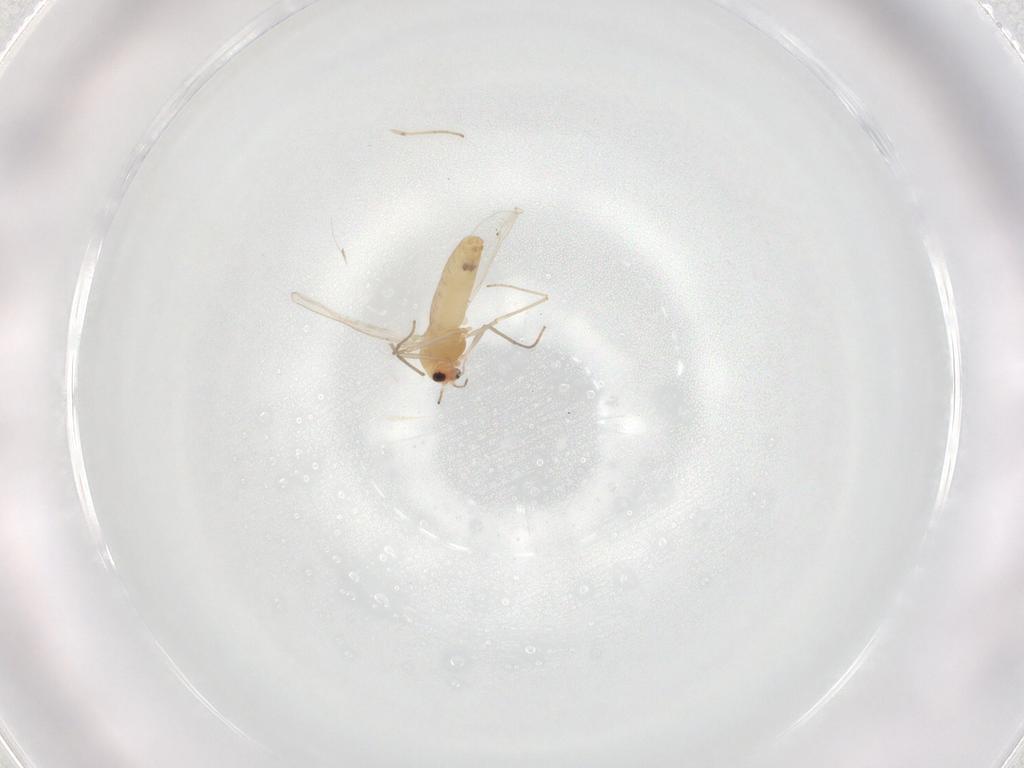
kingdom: Animalia
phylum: Arthropoda
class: Insecta
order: Diptera
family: Chironomidae
